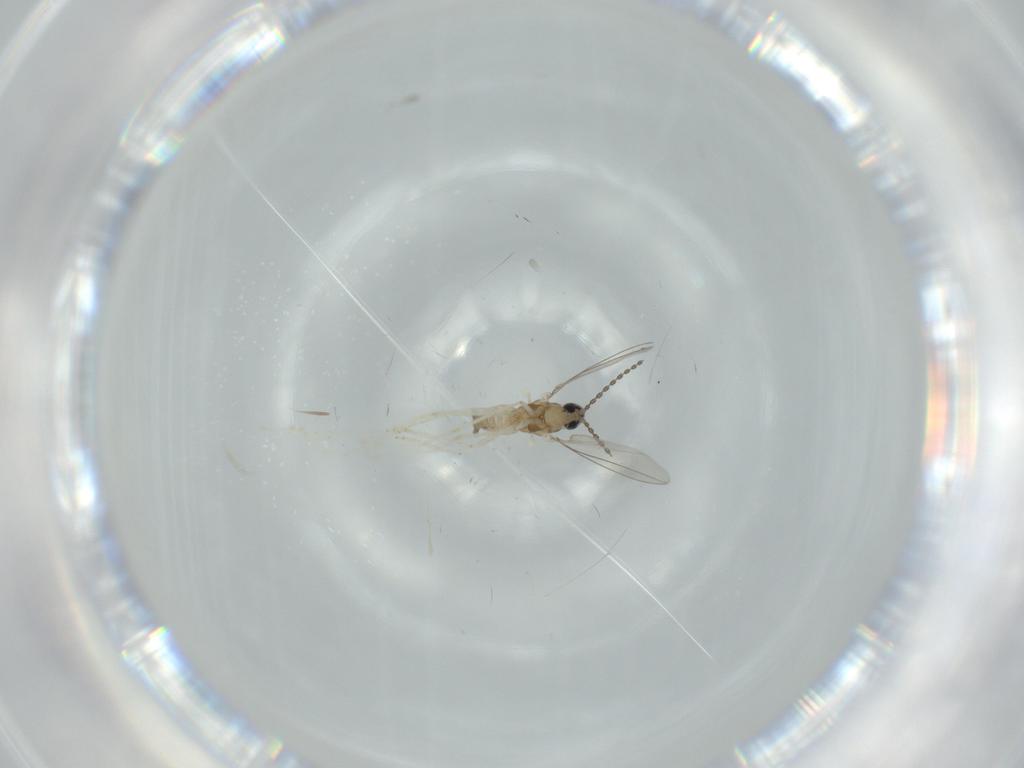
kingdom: Animalia
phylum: Arthropoda
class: Insecta
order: Diptera
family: Cecidomyiidae
